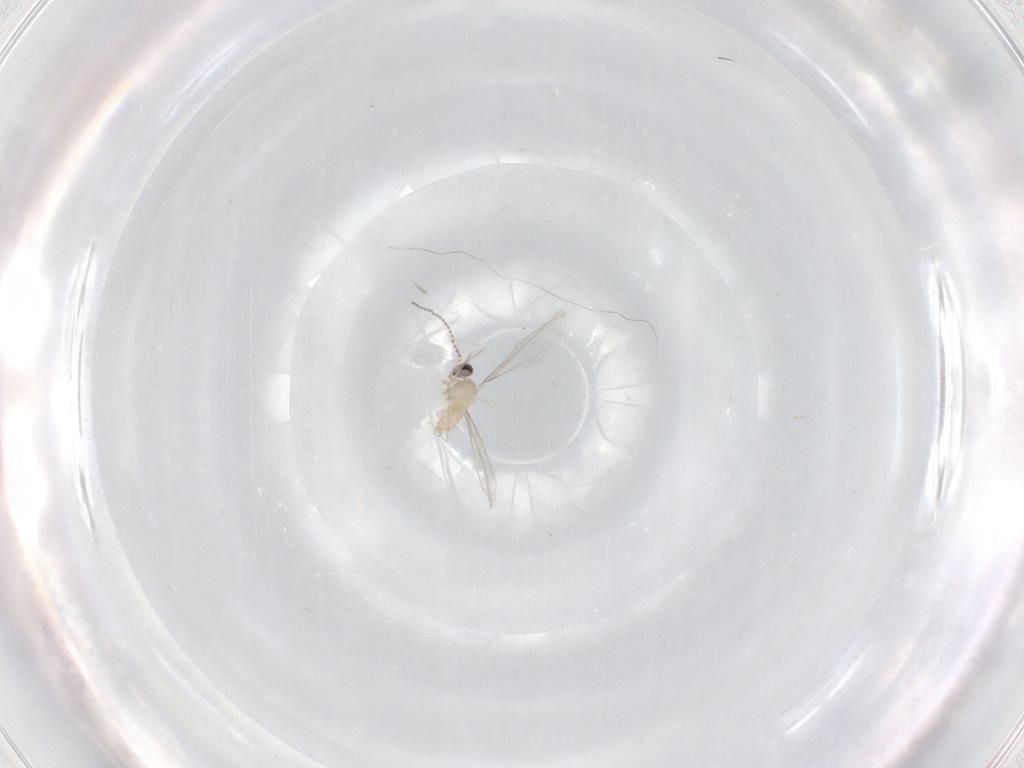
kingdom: Animalia
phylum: Arthropoda
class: Insecta
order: Diptera
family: Cecidomyiidae
